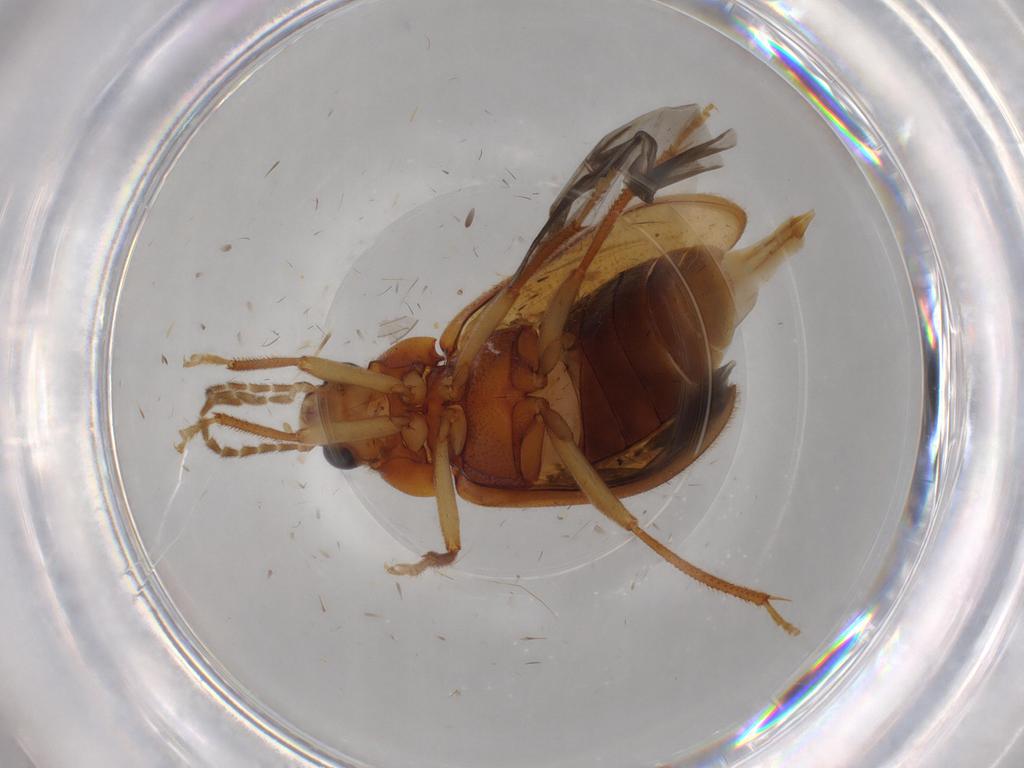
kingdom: Animalia
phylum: Arthropoda
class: Insecta
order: Coleoptera
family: Ptilodactylidae
